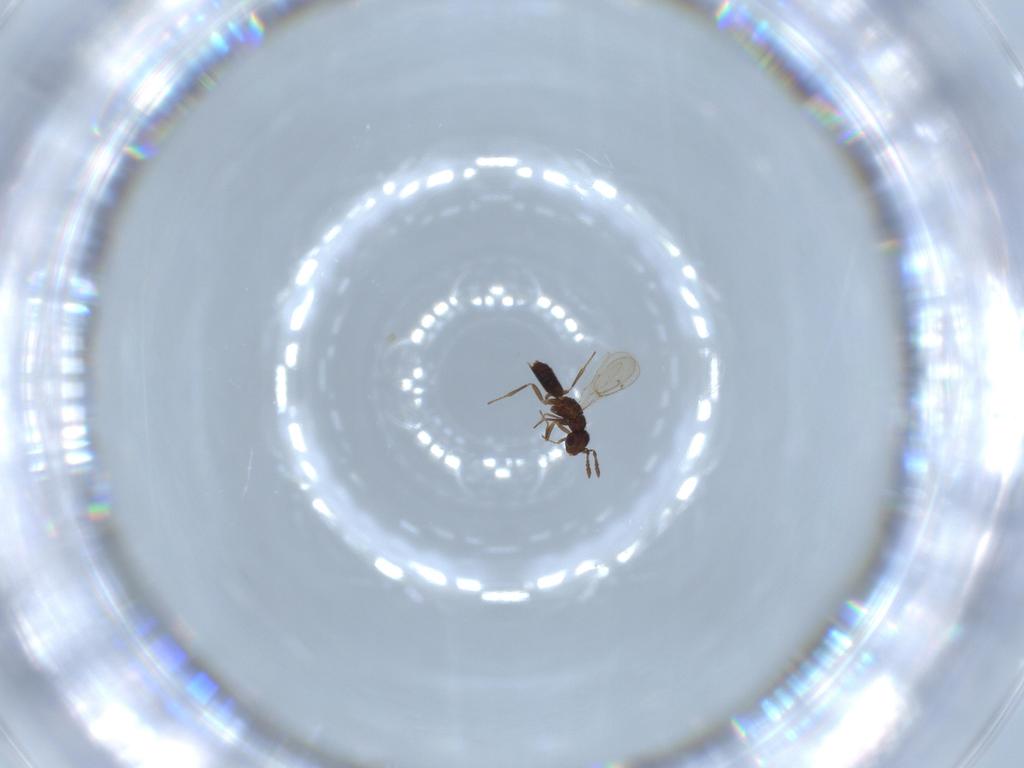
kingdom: Animalia
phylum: Arthropoda
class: Insecta
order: Hymenoptera
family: Pirenidae
